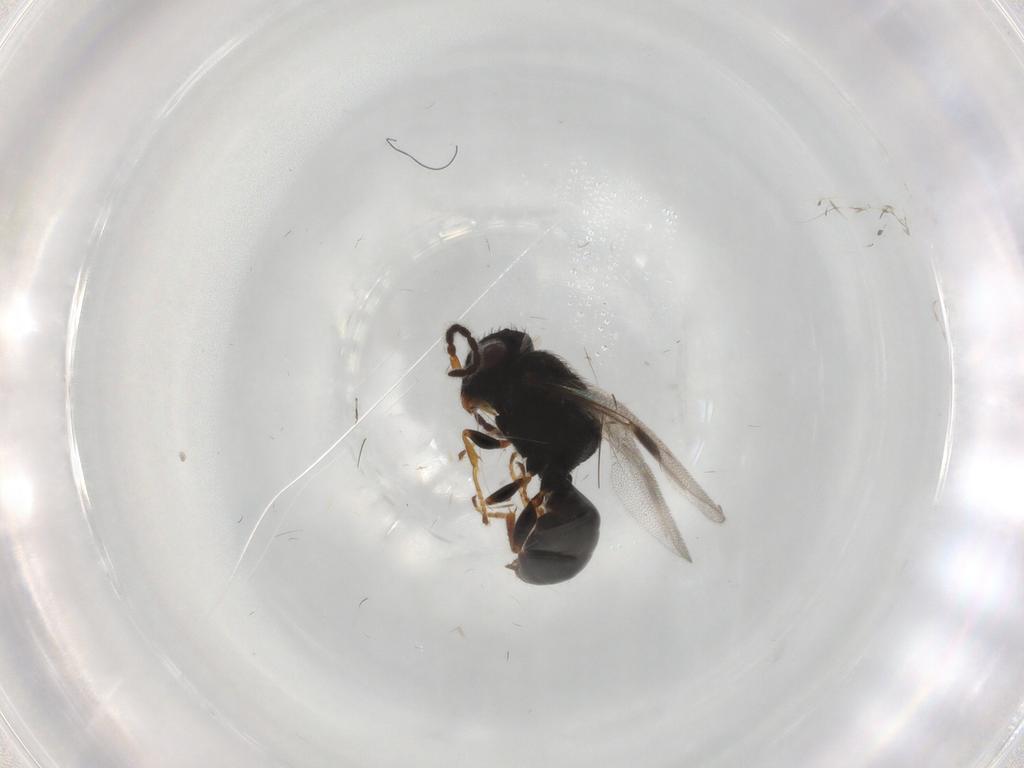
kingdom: Animalia
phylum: Arthropoda
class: Insecta
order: Hymenoptera
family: Dryinidae
